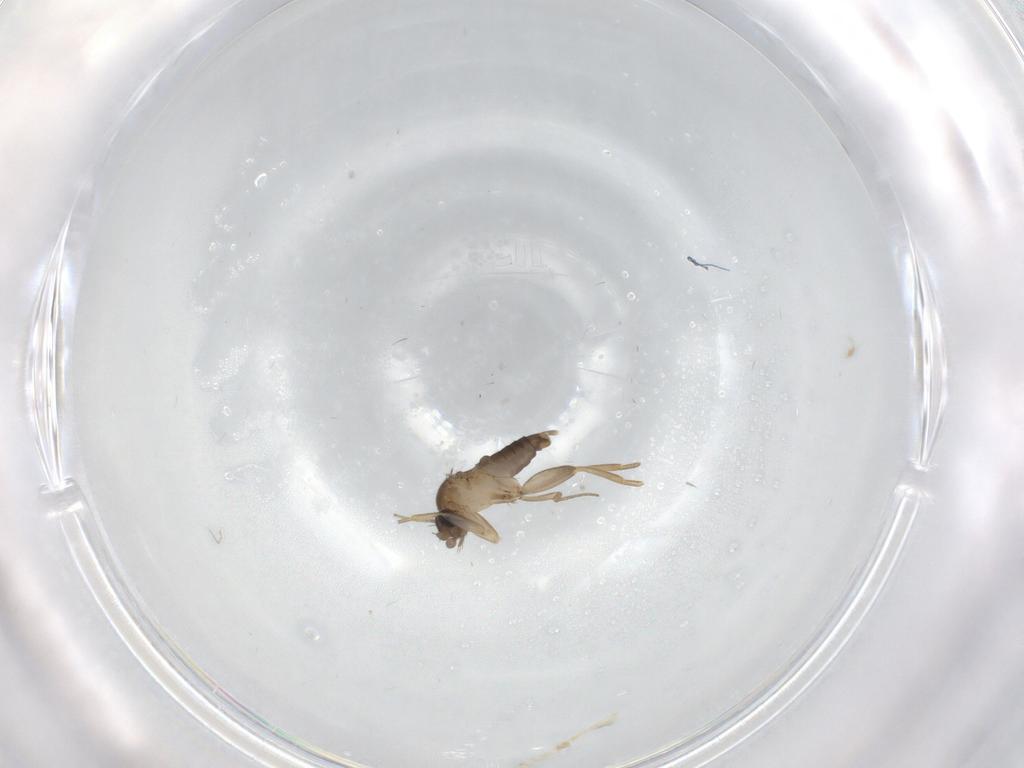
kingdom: Animalia
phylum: Arthropoda
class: Insecta
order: Diptera
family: Phoridae
